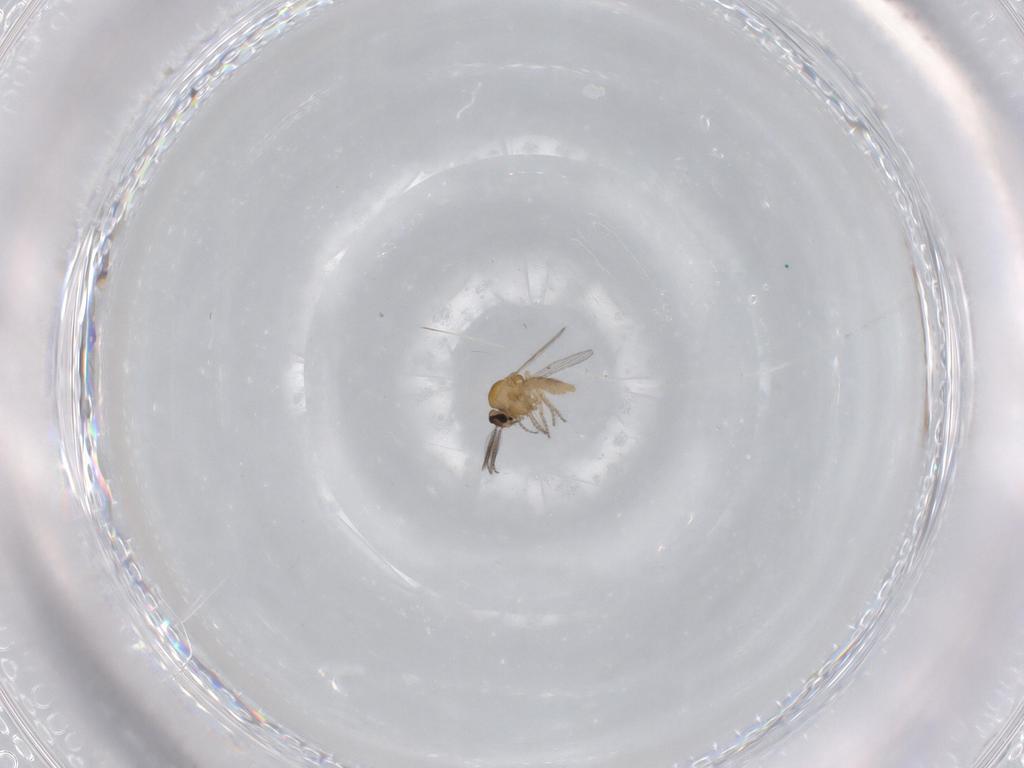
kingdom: Animalia
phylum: Arthropoda
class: Insecta
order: Diptera
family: Ceratopogonidae
